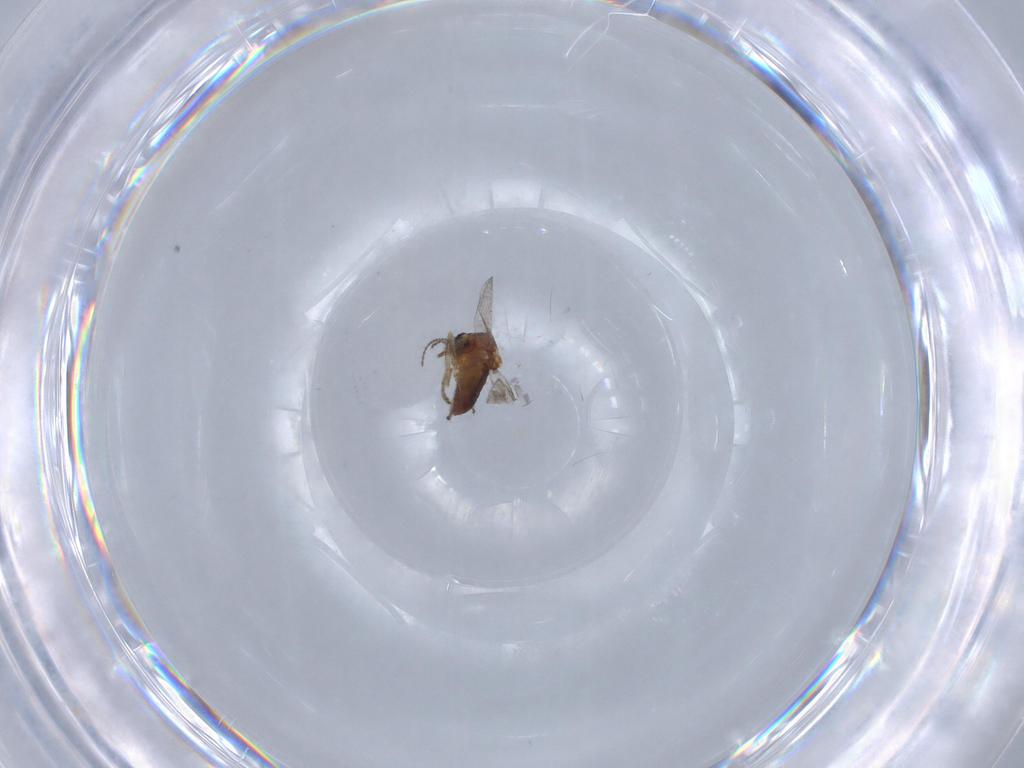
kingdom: Animalia
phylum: Arthropoda
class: Insecta
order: Diptera
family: Ceratopogonidae
